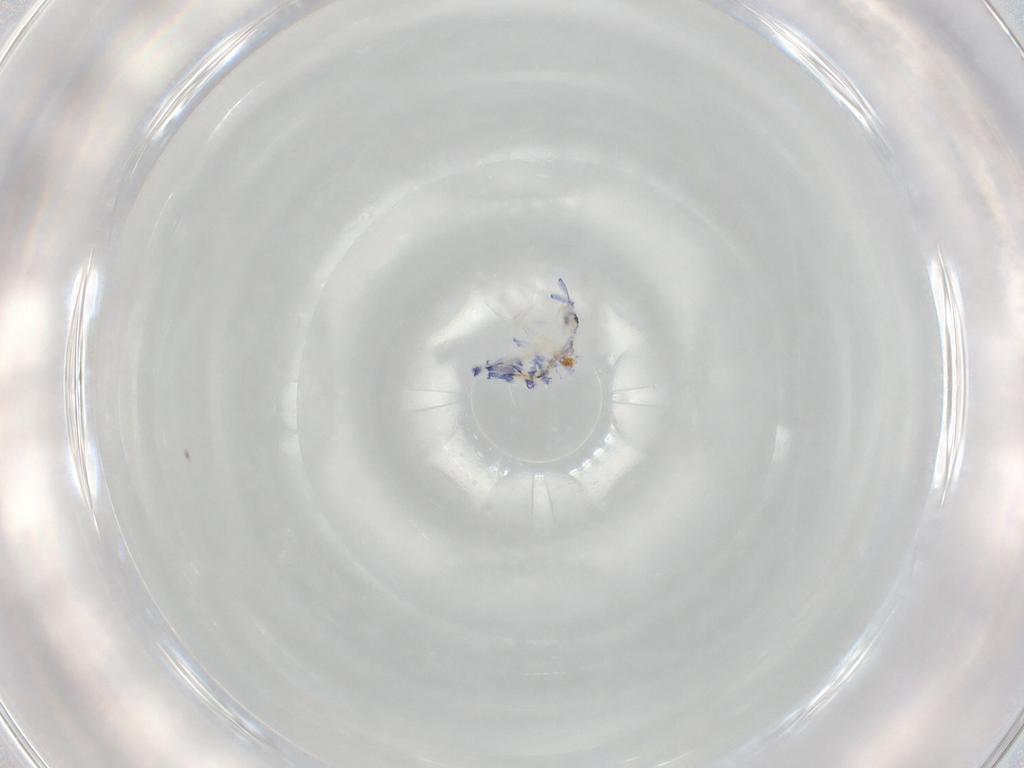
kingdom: Animalia
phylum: Arthropoda
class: Collembola
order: Entomobryomorpha
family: Entomobryidae
